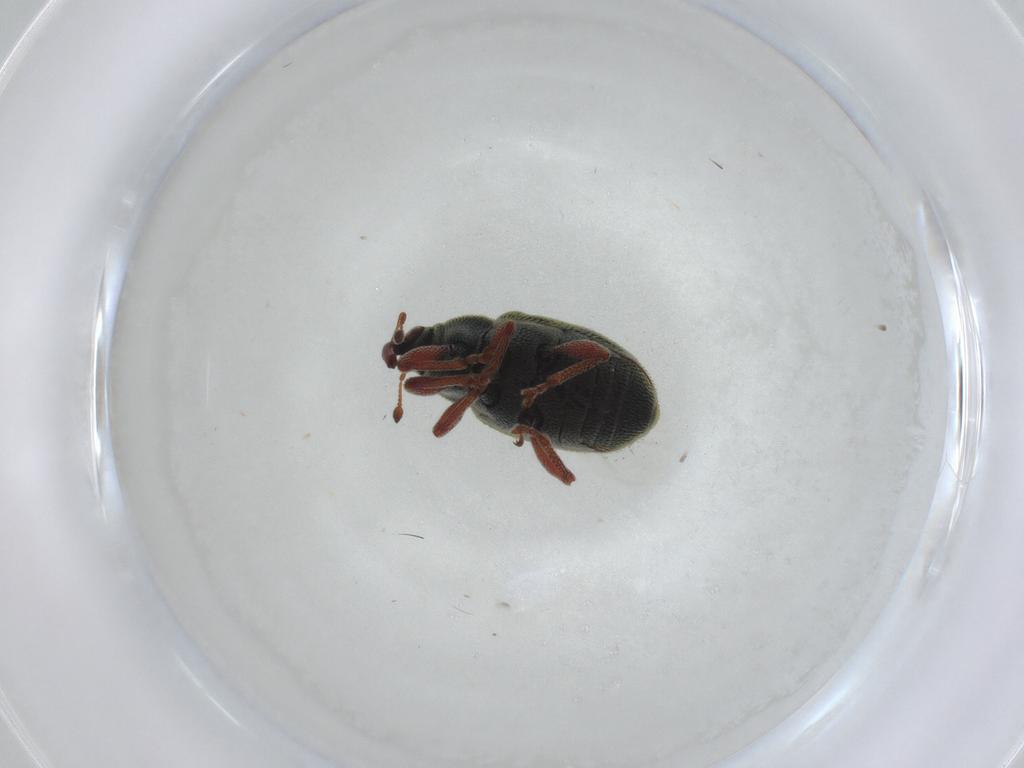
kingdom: Animalia
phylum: Arthropoda
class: Insecta
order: Coleoptera
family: Curculionidae
